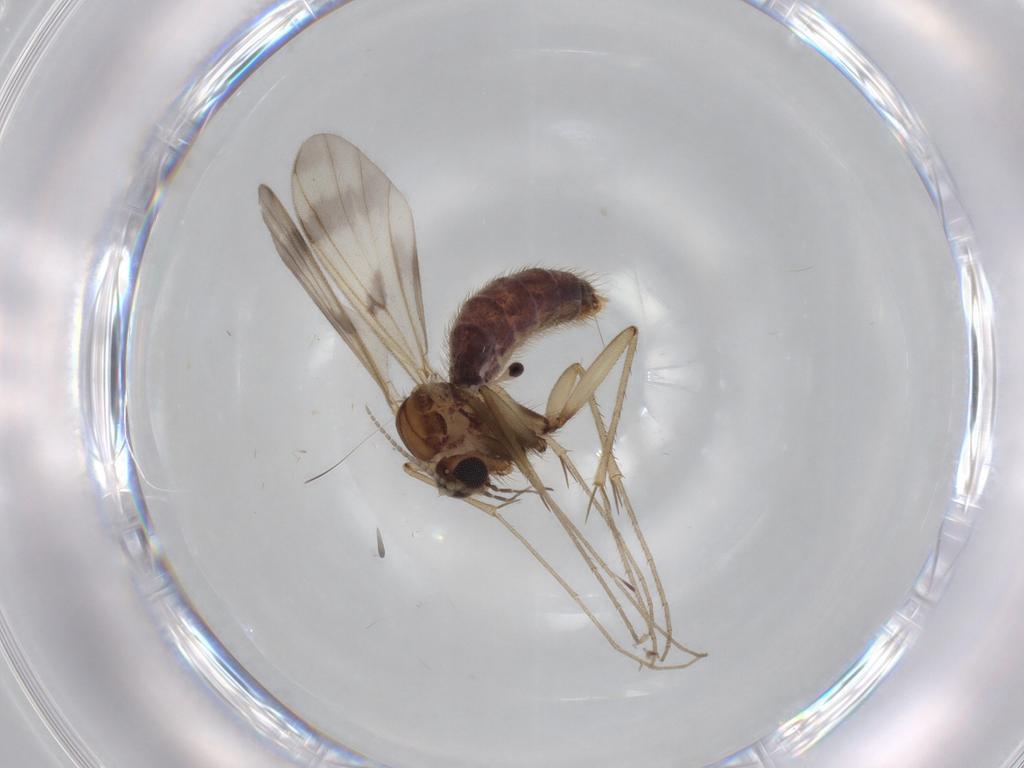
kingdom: Animalia
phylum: Arthropoda
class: Insecta
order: Diptera
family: Mycetophilidae
